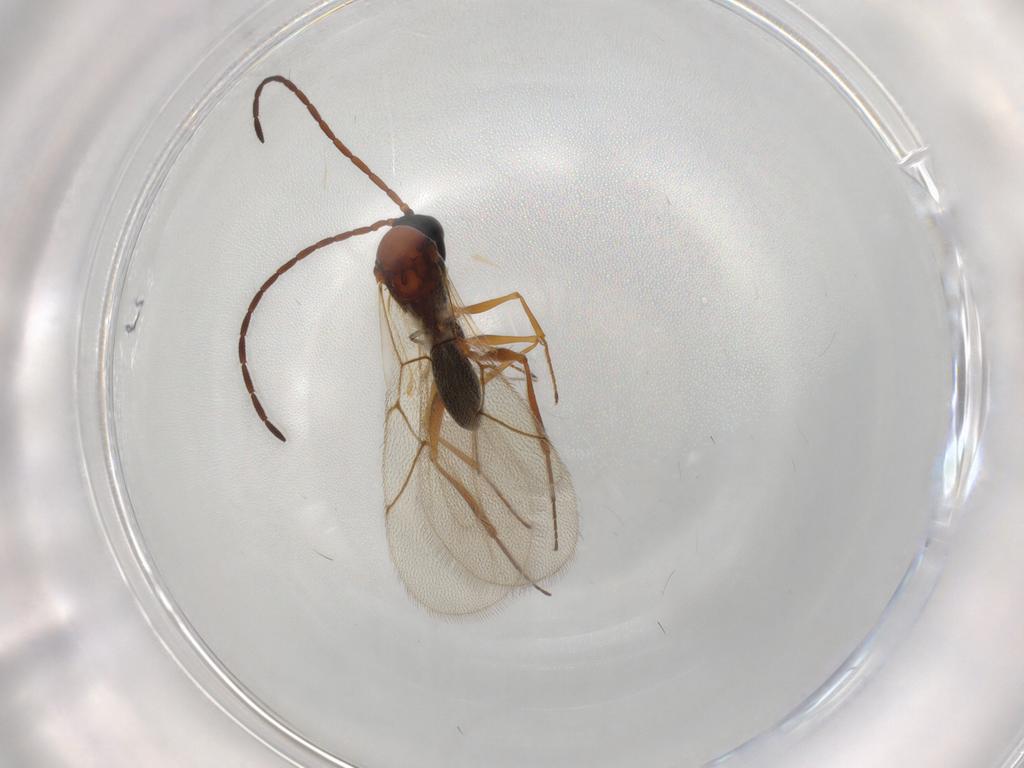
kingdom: Animalia
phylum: Arthropoda
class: Insecta
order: Hymenoptera
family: Figitidae
